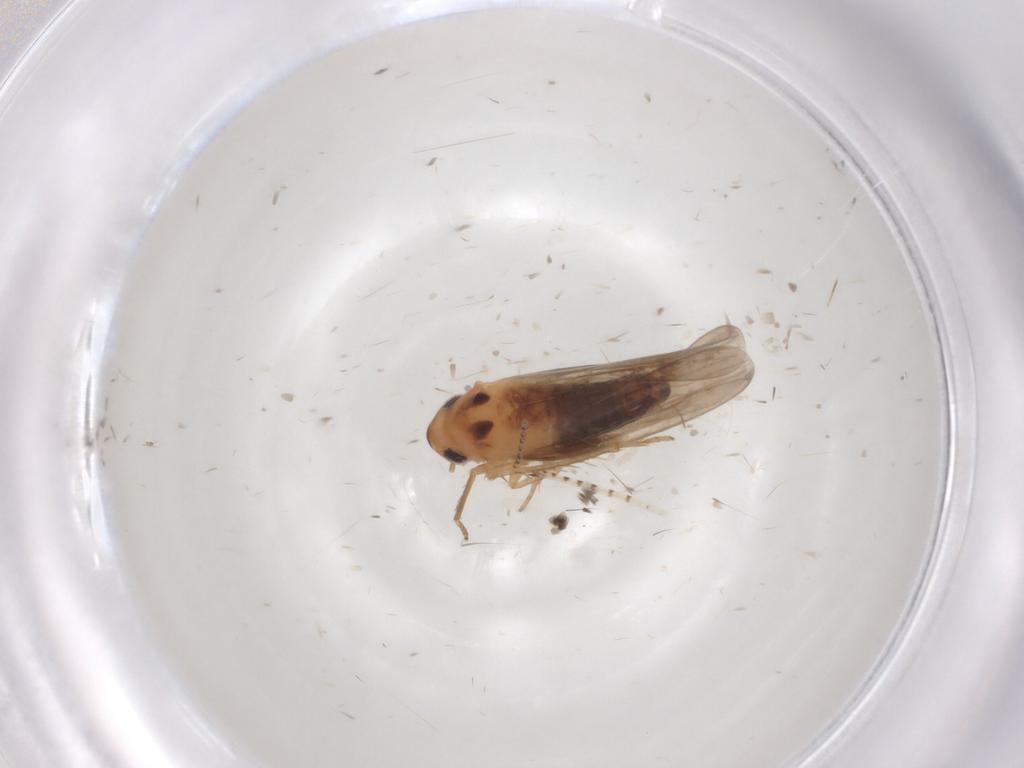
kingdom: Animalia
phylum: Arthropoda
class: Insecta
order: Hemiptera
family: Cicadellidae
